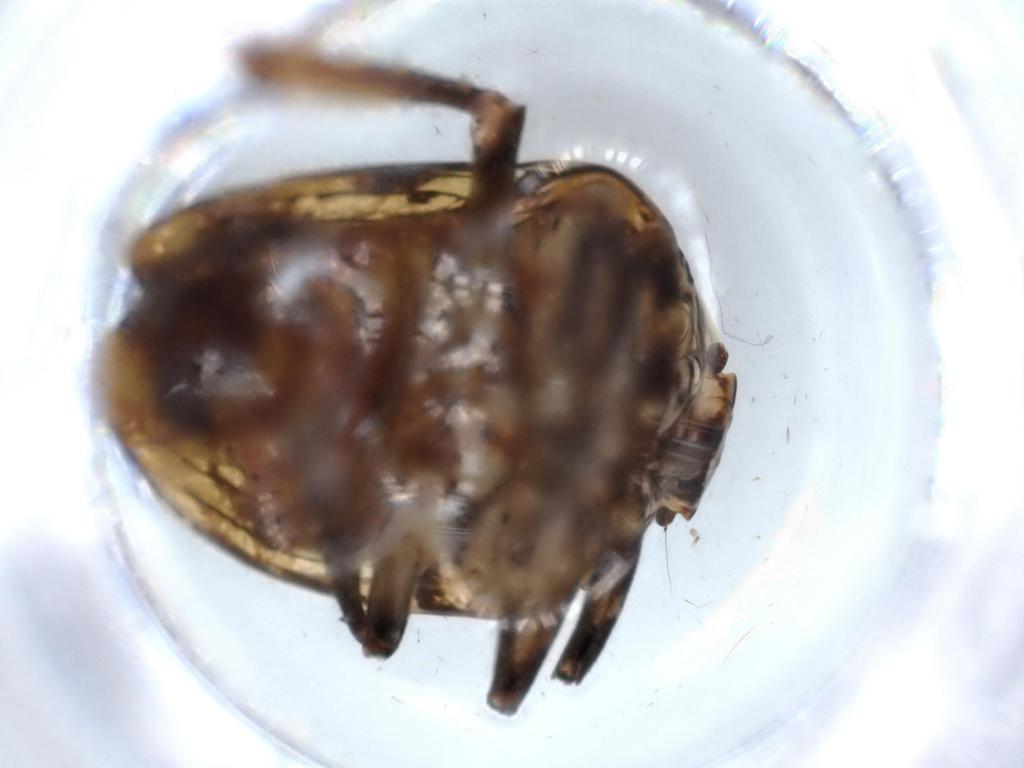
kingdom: Animalia
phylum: Arthropoda
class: Insecta
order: Hemiptera
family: Issidae
